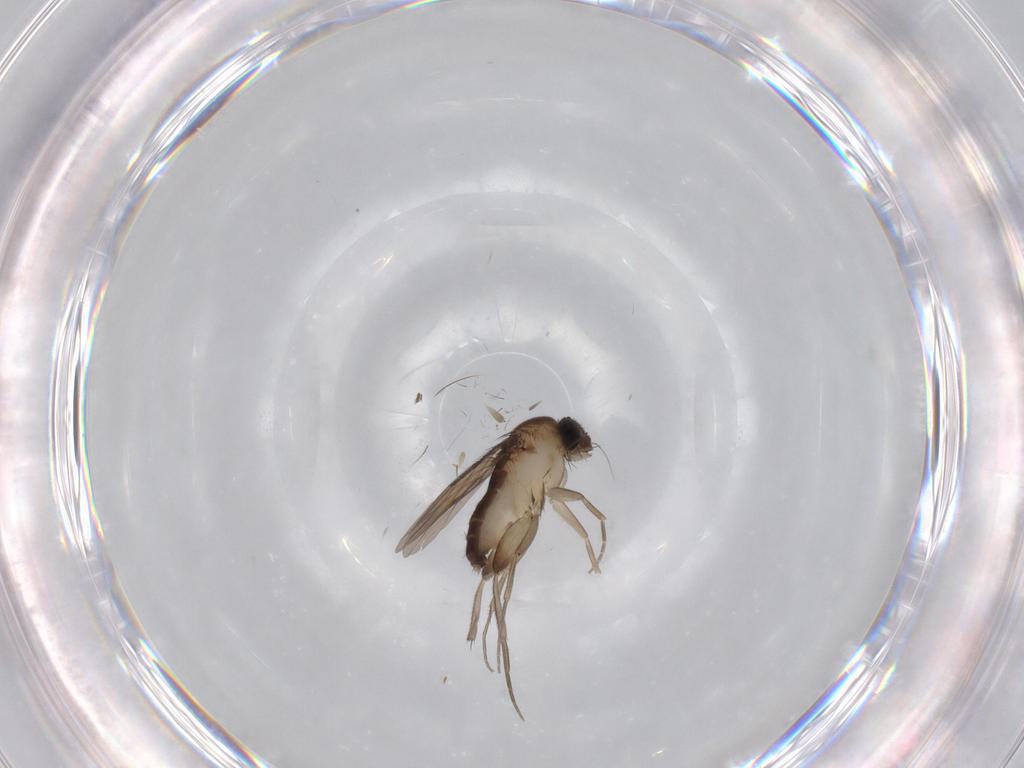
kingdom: Animalia
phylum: Arthropoda
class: Insecta
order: Diptera
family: Phoridae
